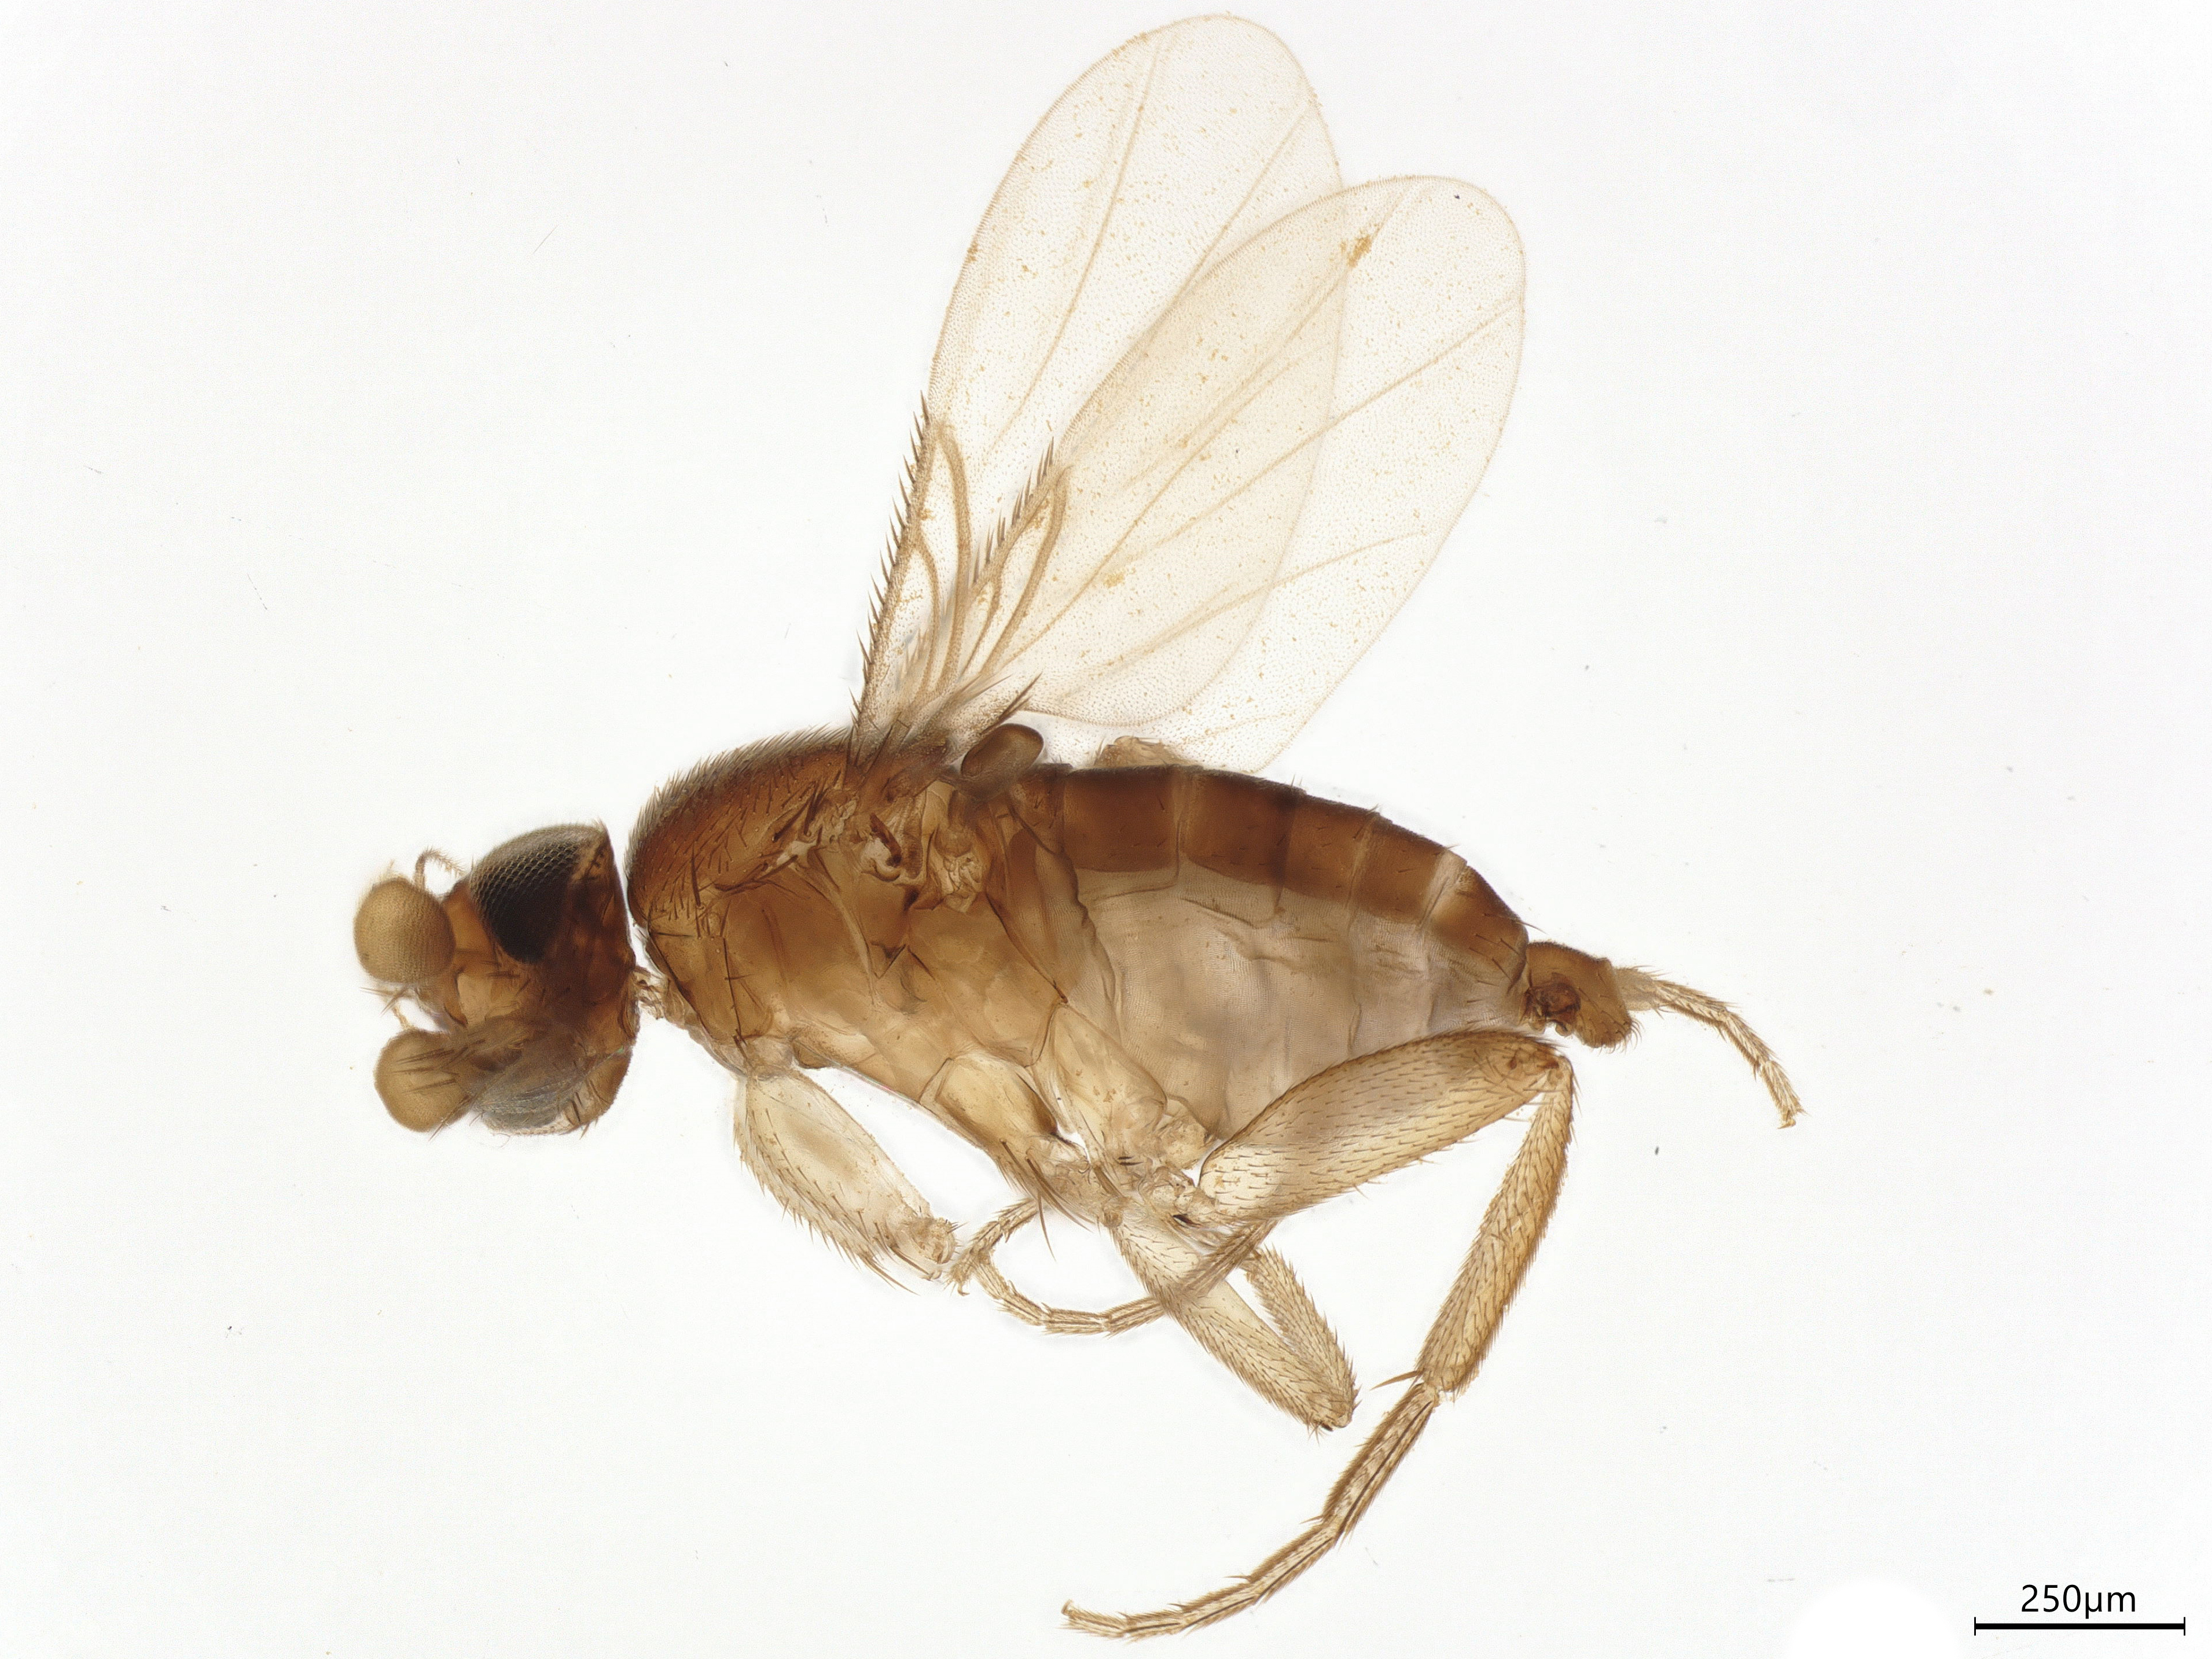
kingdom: Animalia
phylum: Arthropoda
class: Insecta
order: Diptera
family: Phoridae
